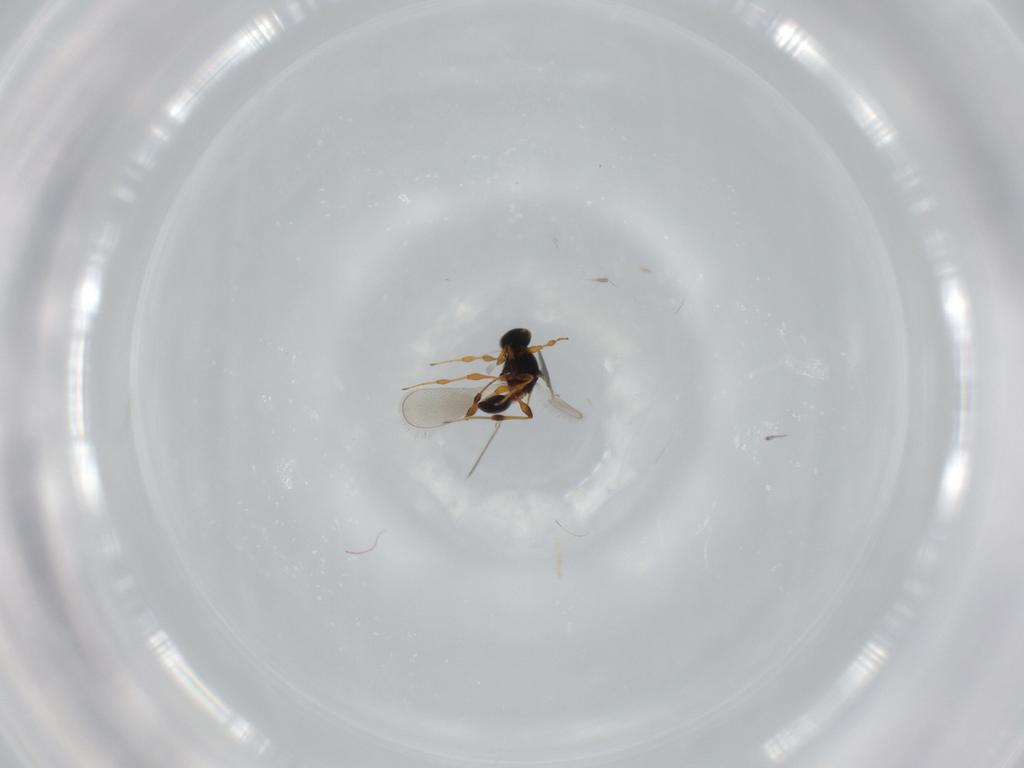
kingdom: Animalia
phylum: Arthropoda
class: Insecta
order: Hymenoptera
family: Platygastridae
